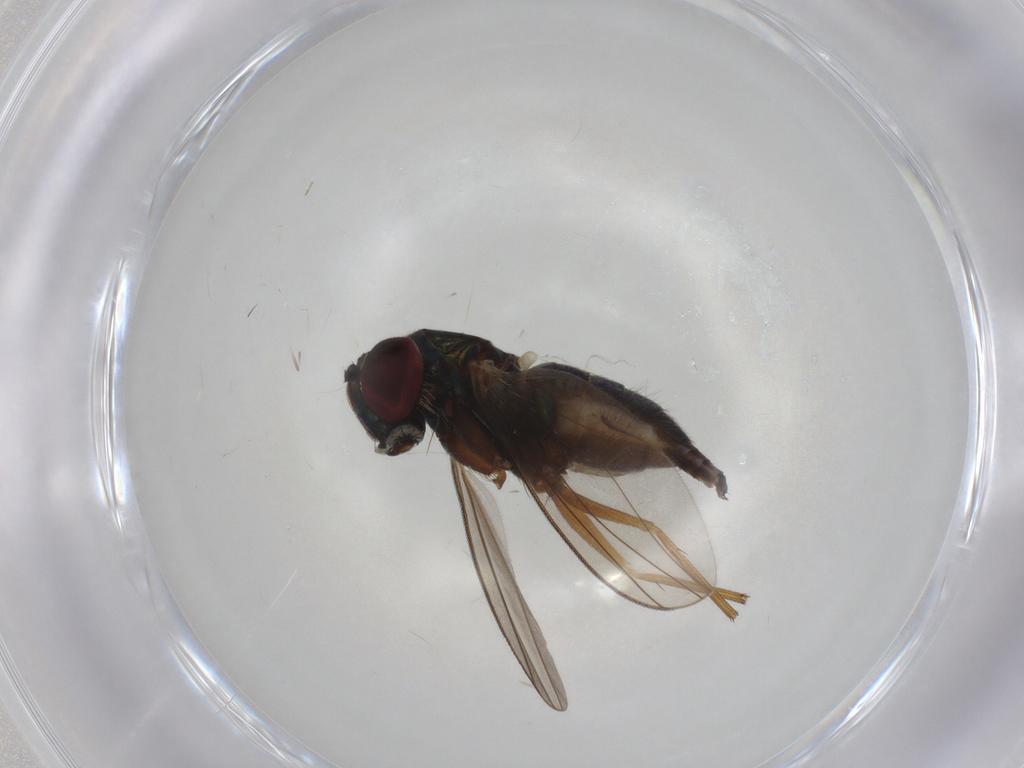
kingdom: Animalia
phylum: Arthropoda
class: Insecta
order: Diptera
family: Dolichopodidae
